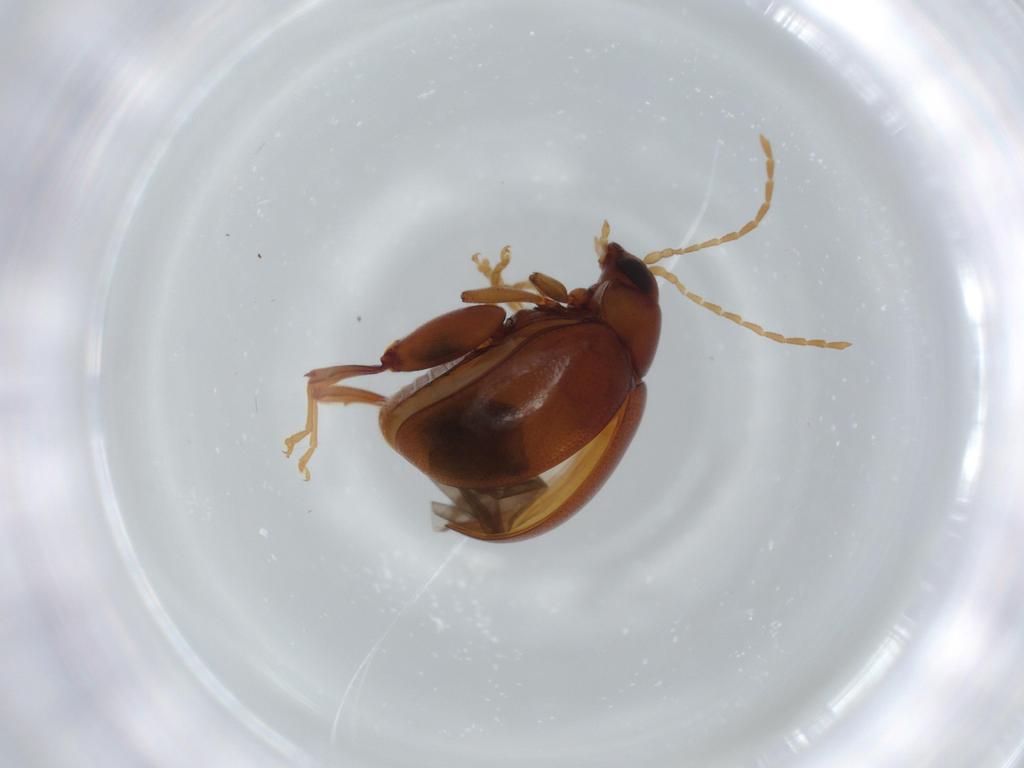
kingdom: Animalia
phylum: Arthropoda
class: Insecta
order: Coleoptera
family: Chrysomelidae
